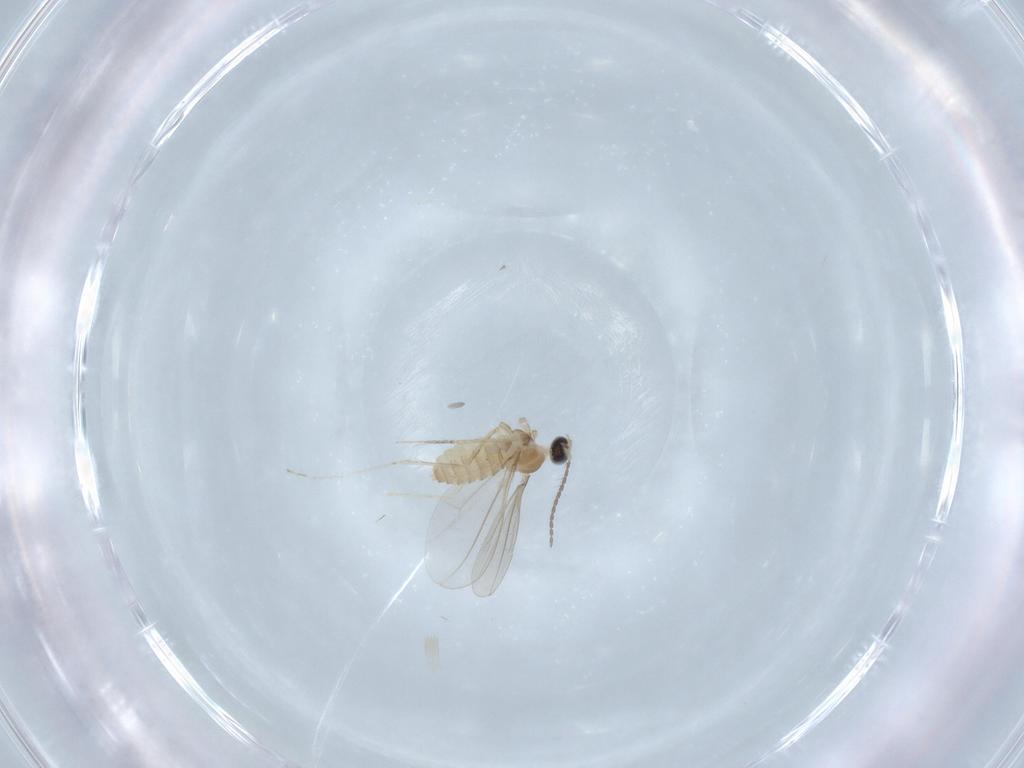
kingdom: Animalia
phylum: Arthropoda
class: Insecta
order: Diptera
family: Cecidomyiidae
